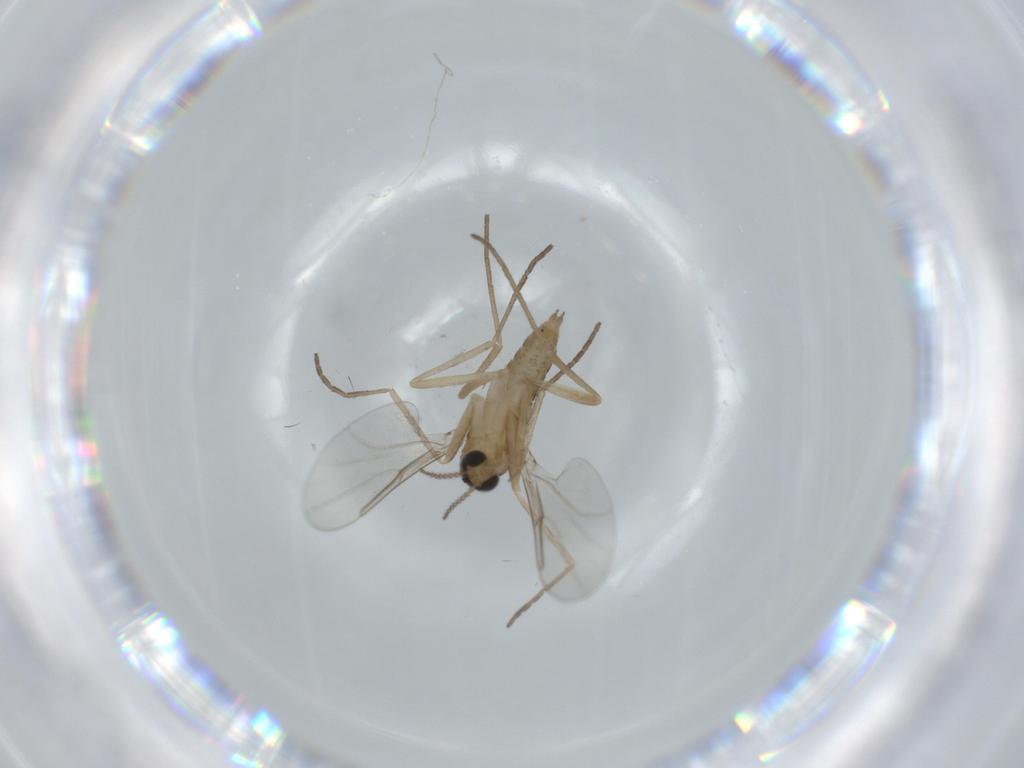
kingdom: Animalia
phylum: Arthropoda
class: Insecta
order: Diptera
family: Cecidomyiidae
